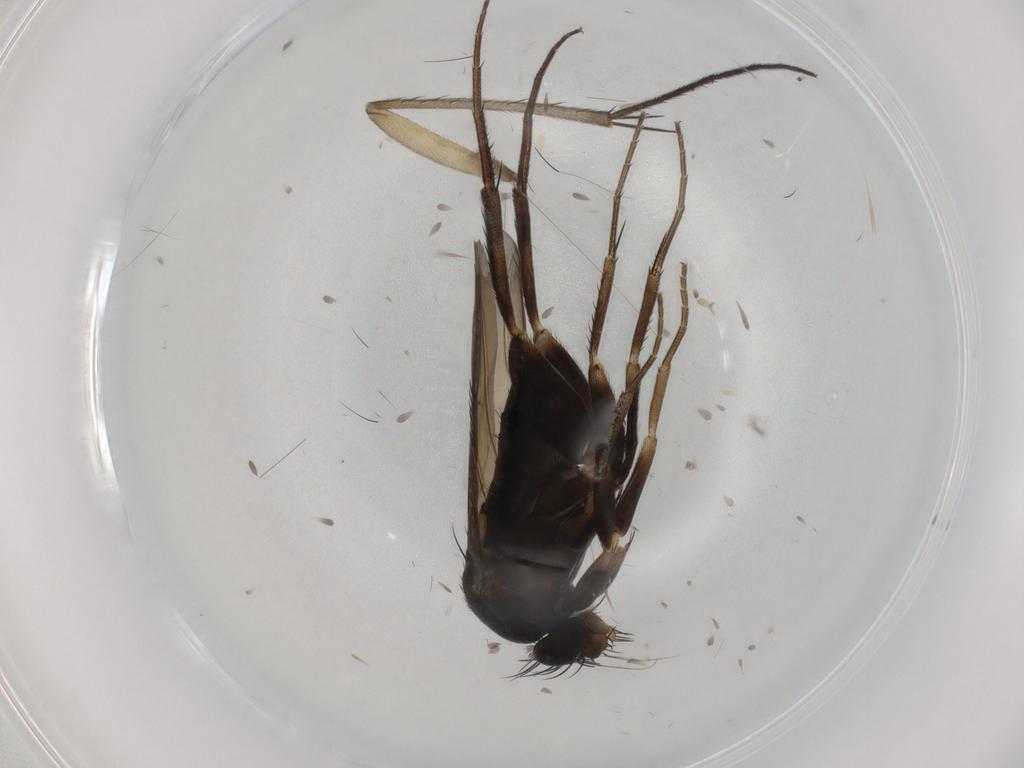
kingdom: Animalia
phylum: Arthropoda
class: Insecta
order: Diptera
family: Phoridae
